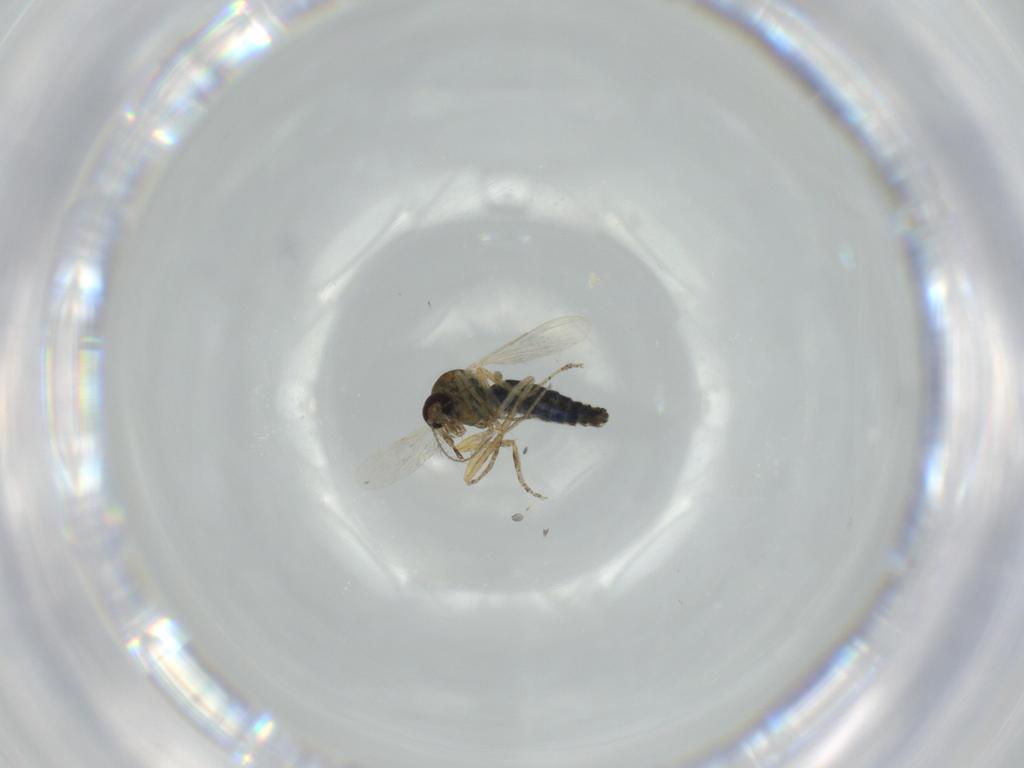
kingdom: Animalia
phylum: Arthropoda
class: Insecta
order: Diptera
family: Ceratopogonidae
